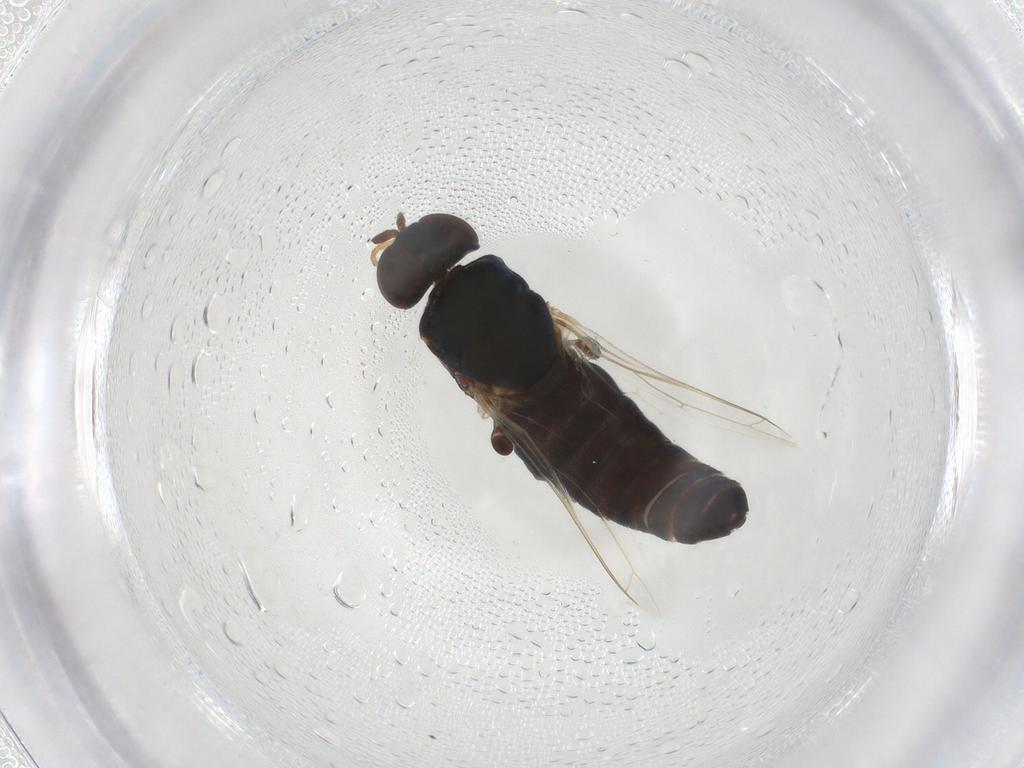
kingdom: Animalia
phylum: Arthropoda
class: Insecta
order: Diptera
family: Scenopinidae
